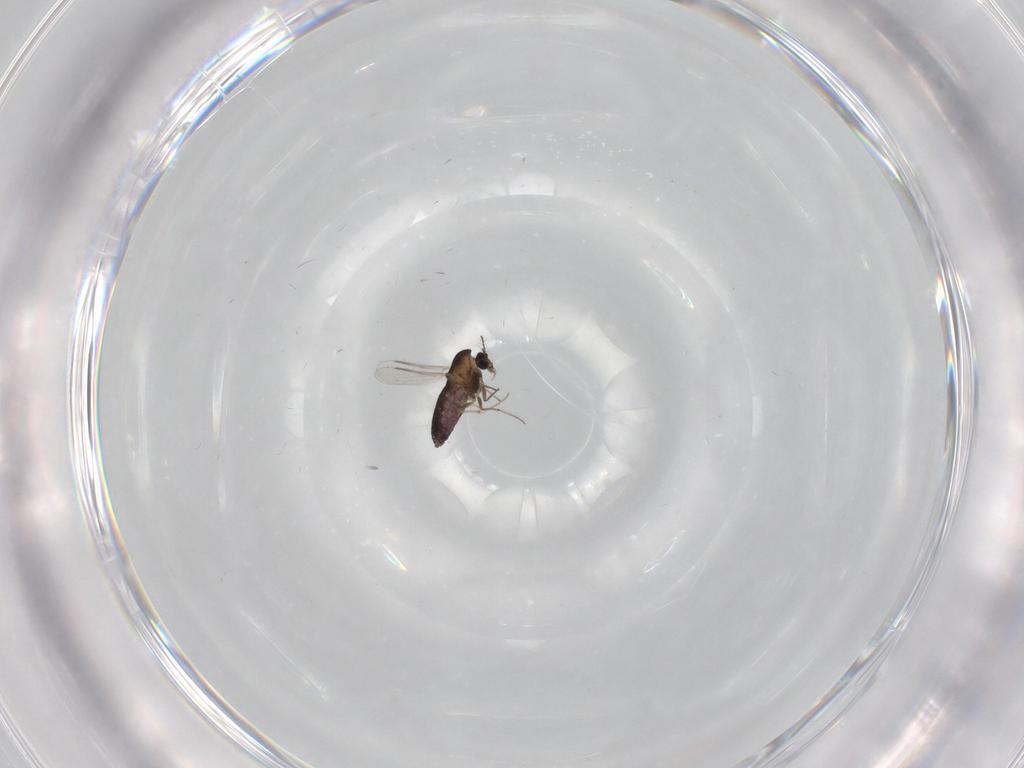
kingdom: Animalia
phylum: Arthropoda
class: Insecta
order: Diptera
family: Chironomidae
